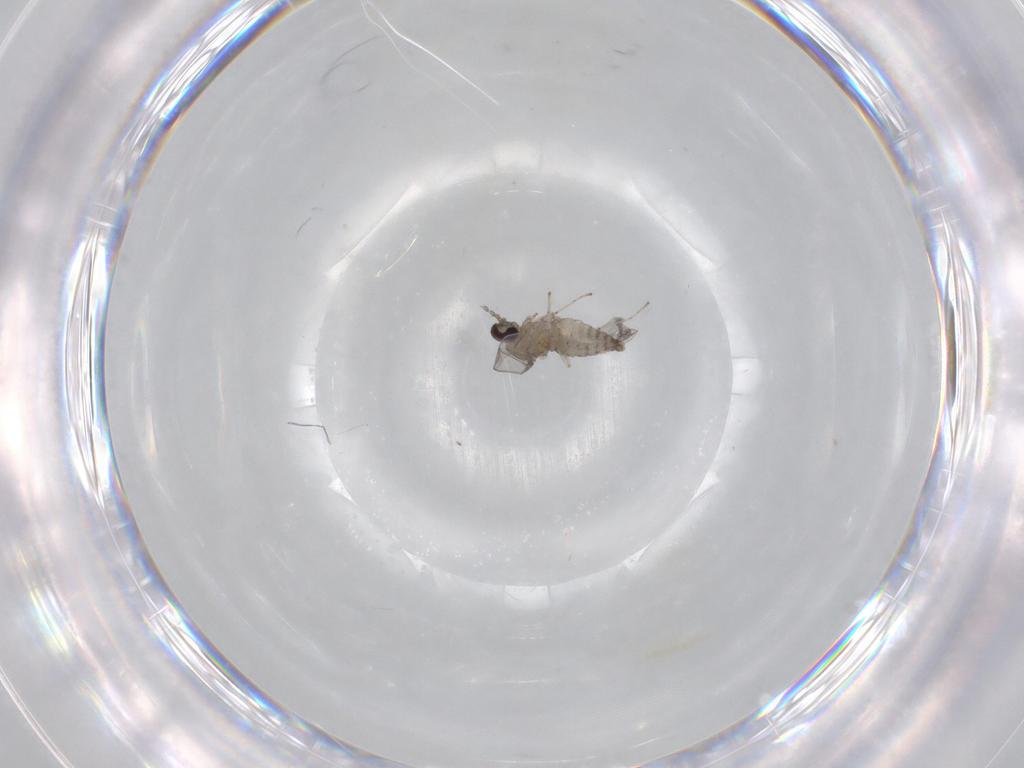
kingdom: Animalia
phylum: Arthropoda
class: Insecta
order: Diptera
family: Cecidomyiidae
